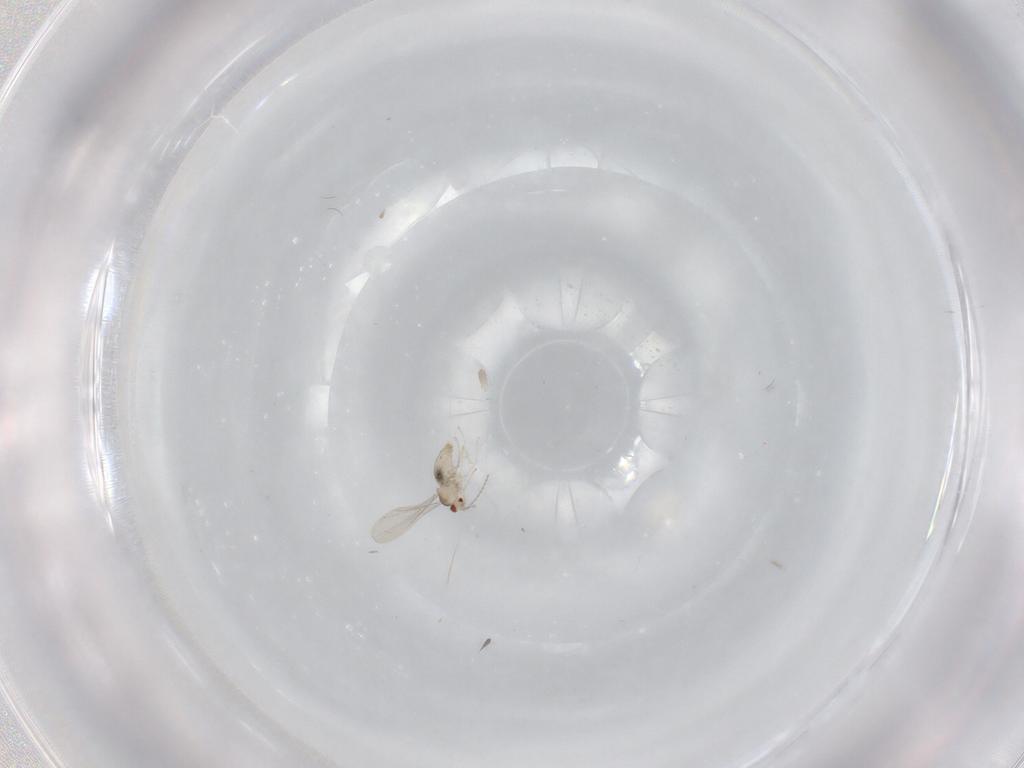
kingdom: Animalia
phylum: Arthropoda
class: Insecta
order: Diptera
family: Cecidomyiidae
